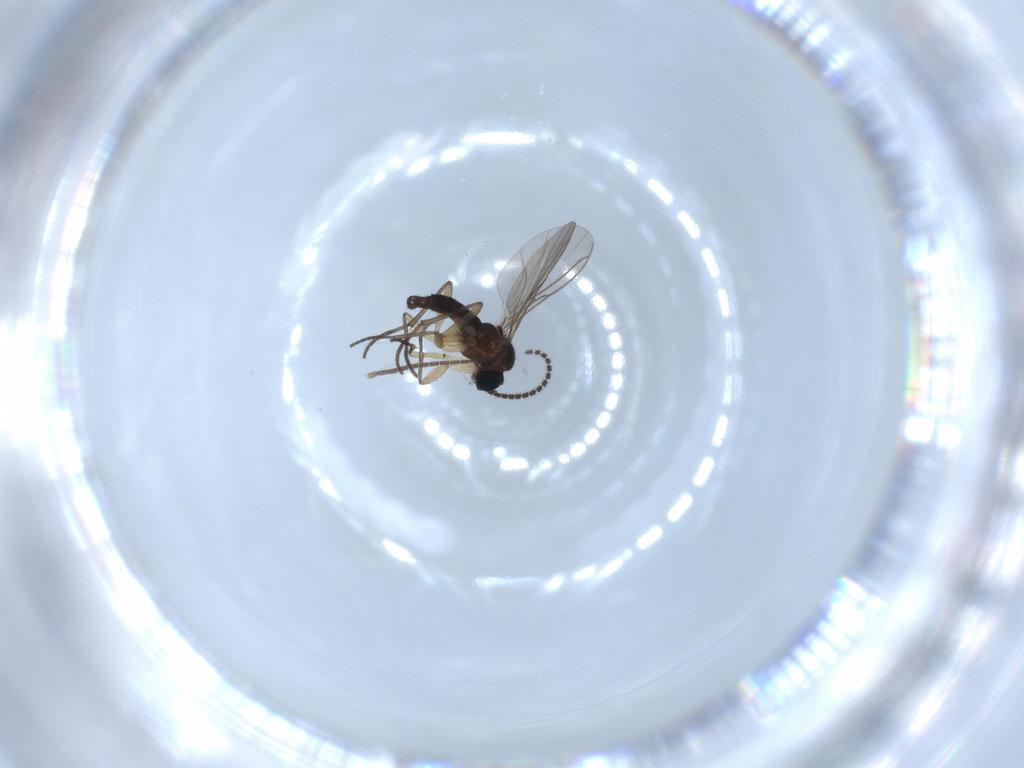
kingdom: Animalia
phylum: Arthropoda
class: Insecta
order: Diptera
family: Sciaridae
